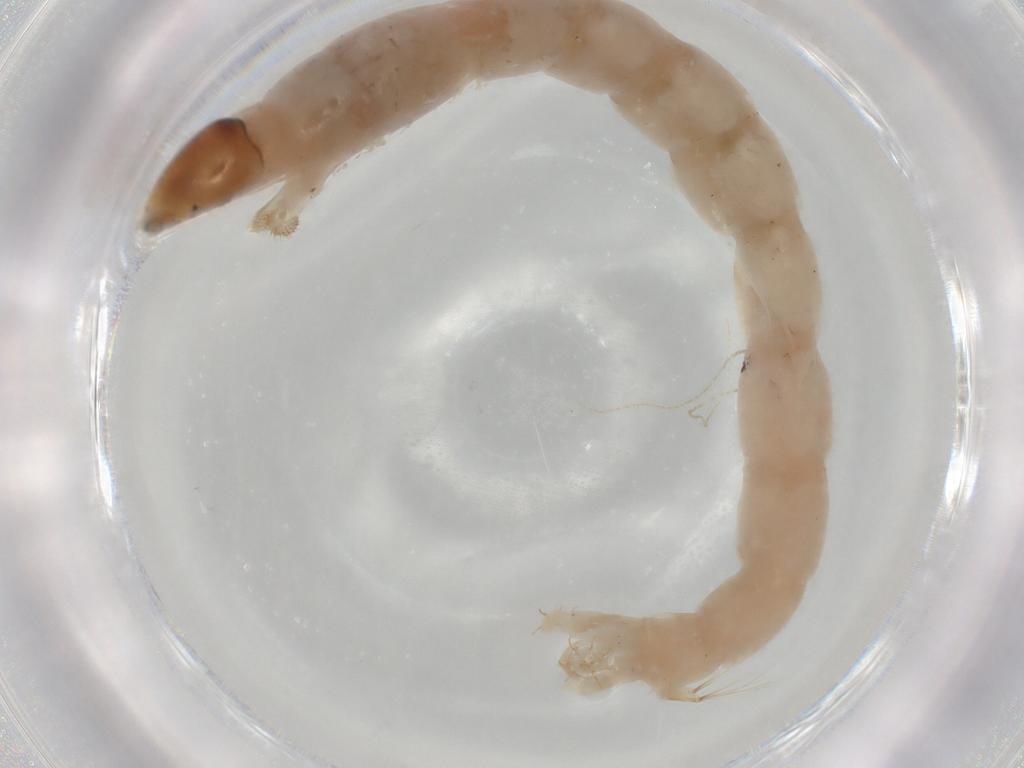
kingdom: Animalia
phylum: Arthropoda
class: Insecta
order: Diptera
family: Chironomidae
